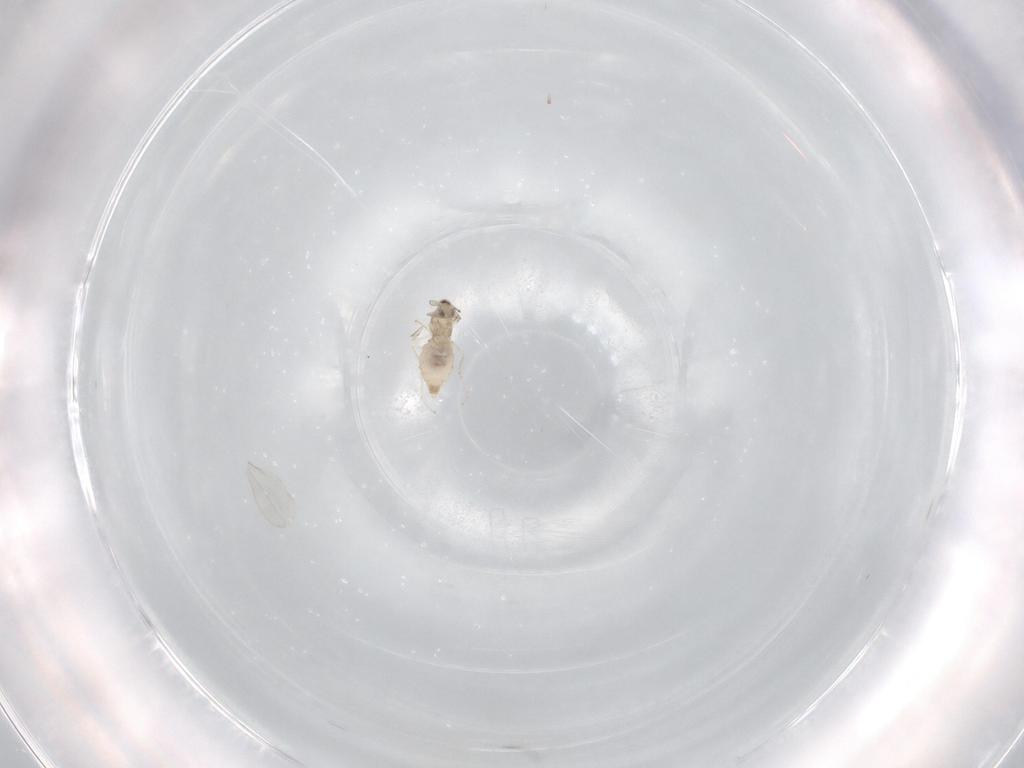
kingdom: Animalia
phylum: Arthropoda
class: Insecta
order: Diptera
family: Cecidomyiidae
